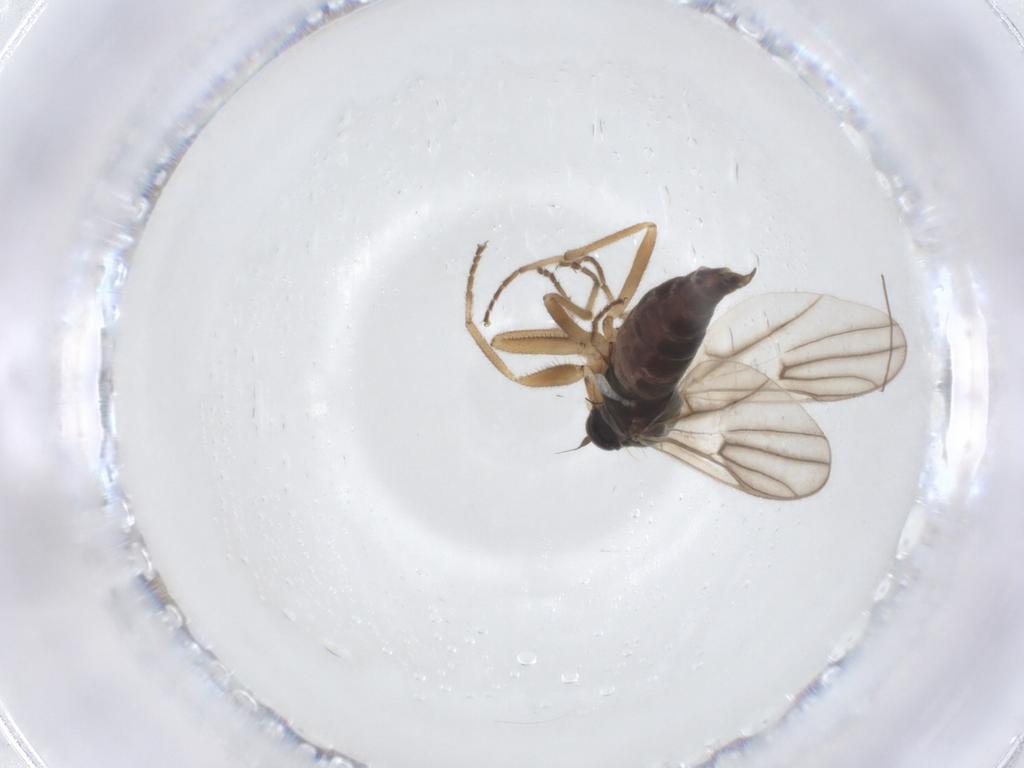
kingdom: Animalia
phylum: Arthropoda
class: Insecta
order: Diptera
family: Hybotidae
